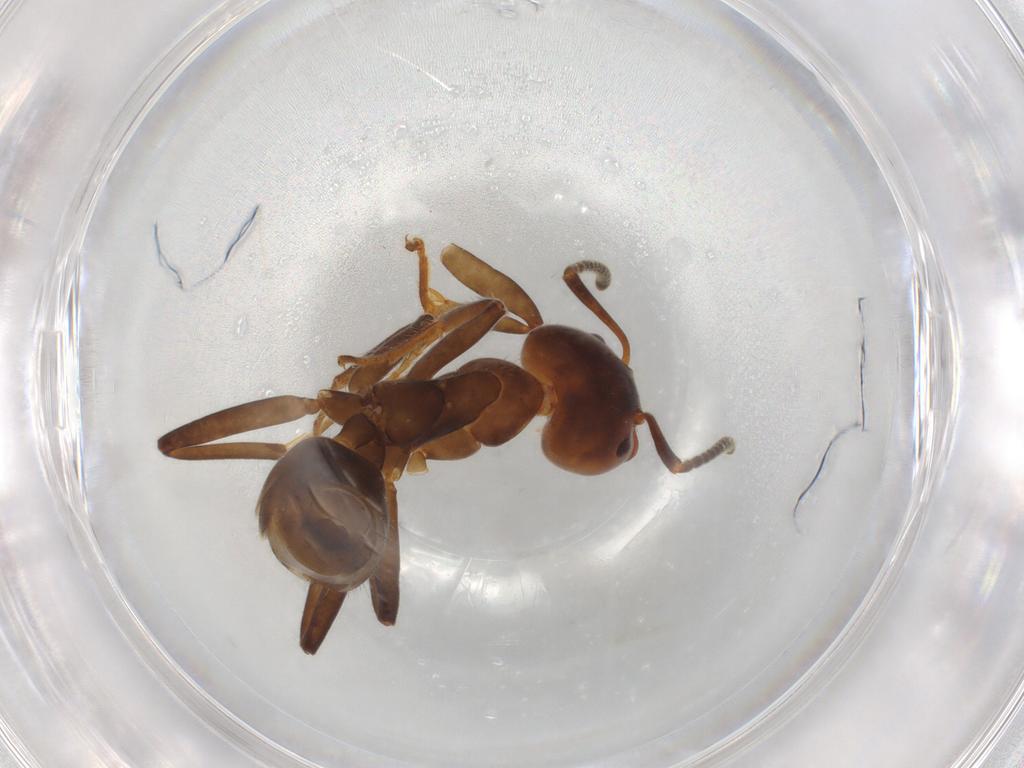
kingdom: Animalia
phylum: Arthropoda
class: Insecta
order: Hymenoptera
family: Formicidae
